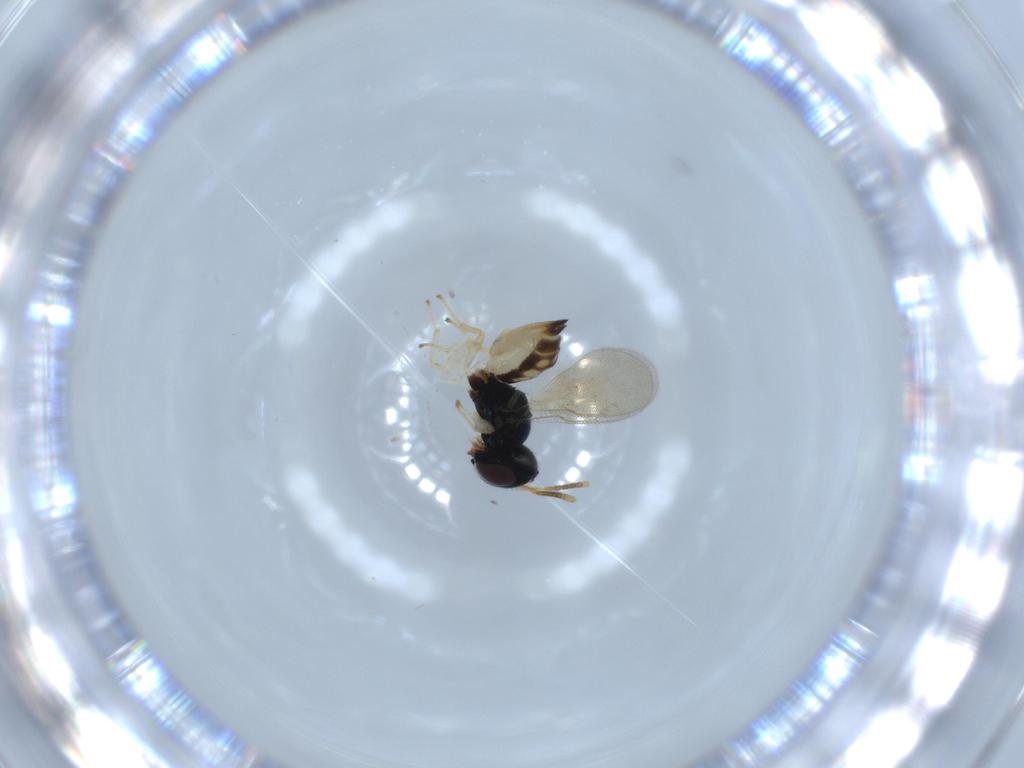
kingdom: Animalia
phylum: Arthropoda
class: Insecta
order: Hymenoptera
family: Pteromalidae
